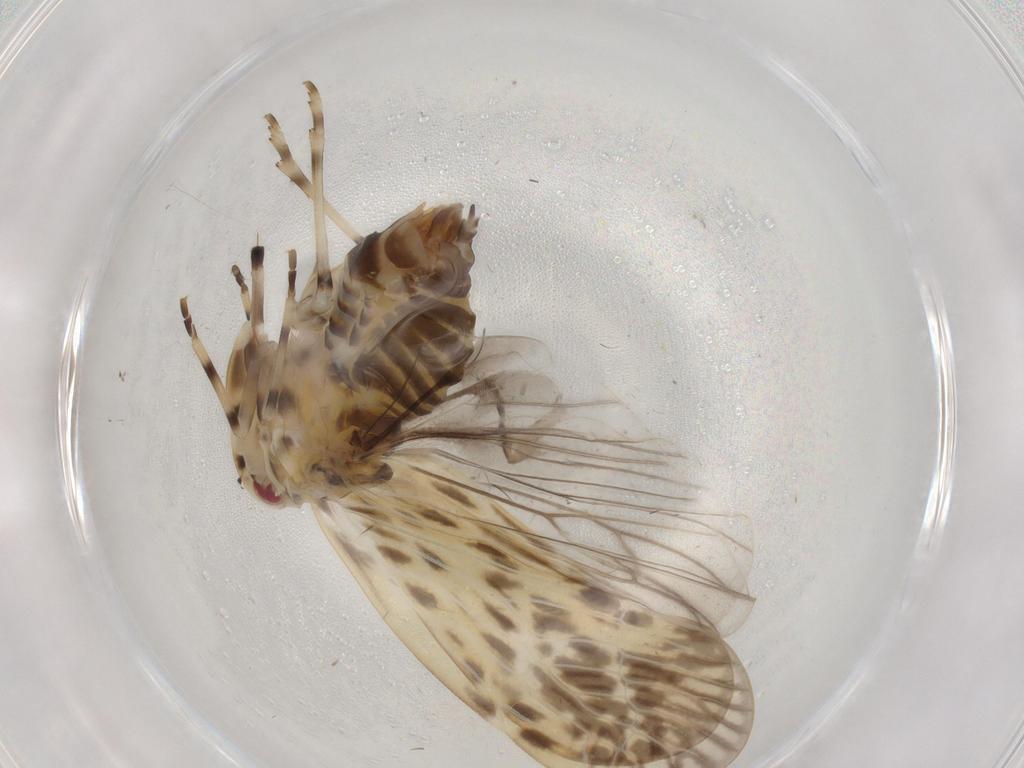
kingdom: Animalia
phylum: Arthropoda
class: Insecta
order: Hemiptera
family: Derbidae
